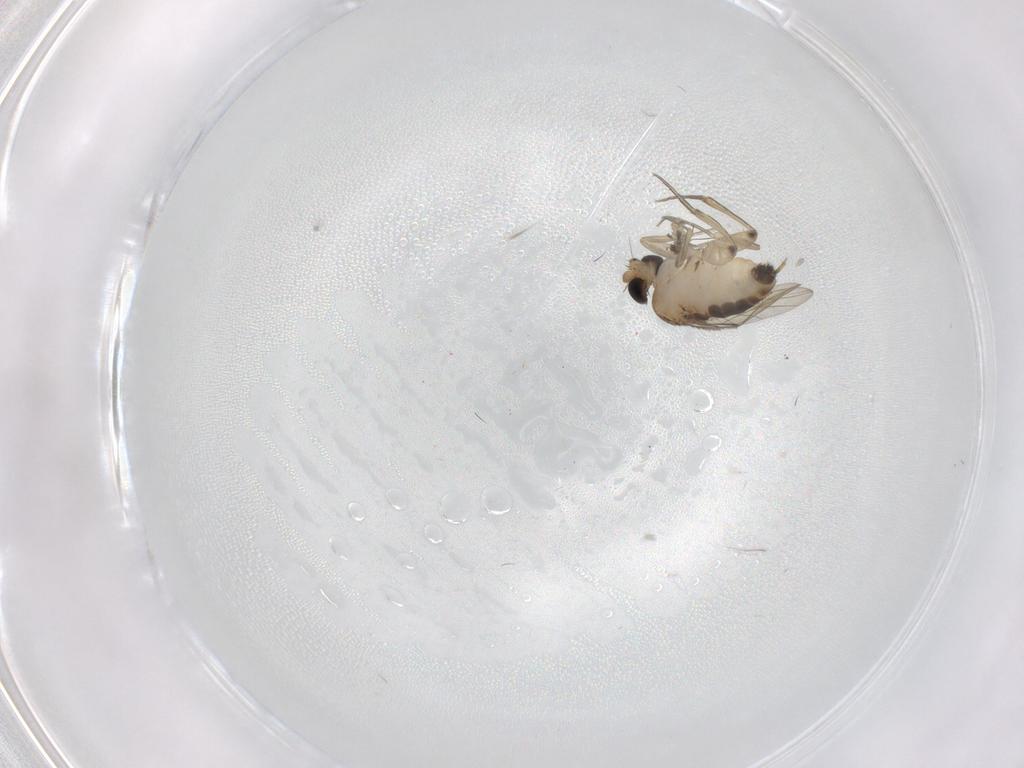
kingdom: Animalia
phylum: Arthropoda
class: Insecta
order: Diptera
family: Phoridae
